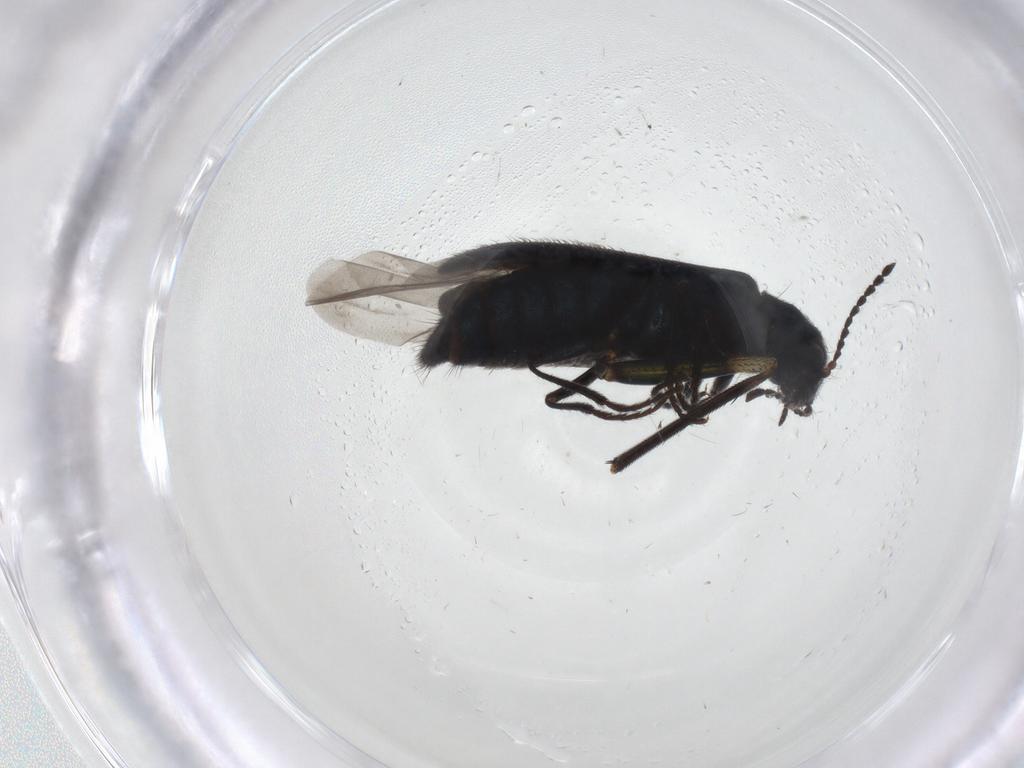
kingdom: Animalia
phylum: Arthropoda
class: Insecta
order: Coleoptera
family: Melyridae
